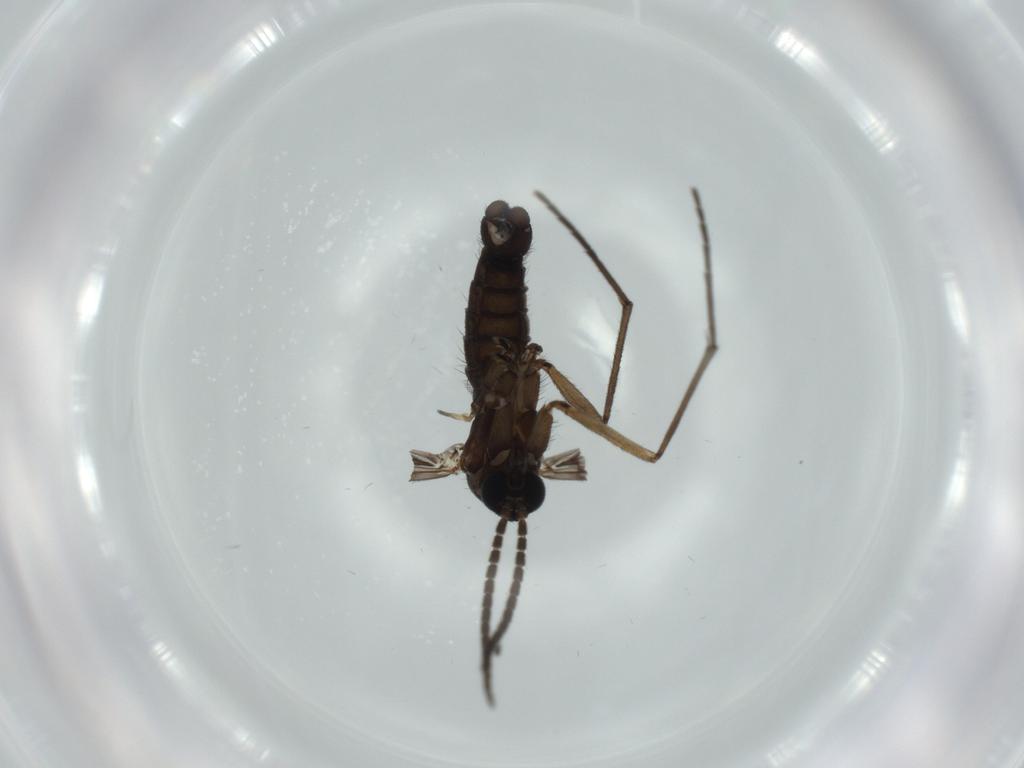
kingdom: Animalia
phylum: Arthropoda
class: Insecta
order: Diptera
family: Sciaridae
